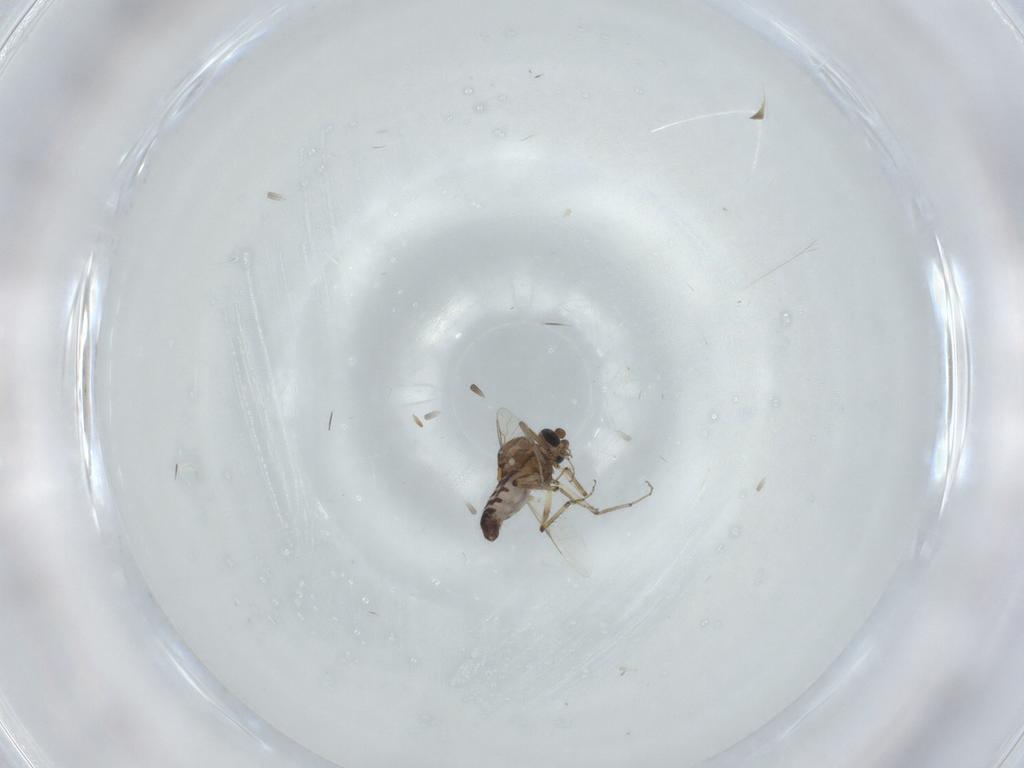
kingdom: Animalia
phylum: Arthropoda
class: Insecta
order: Diptera
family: Ceratopogonidae
